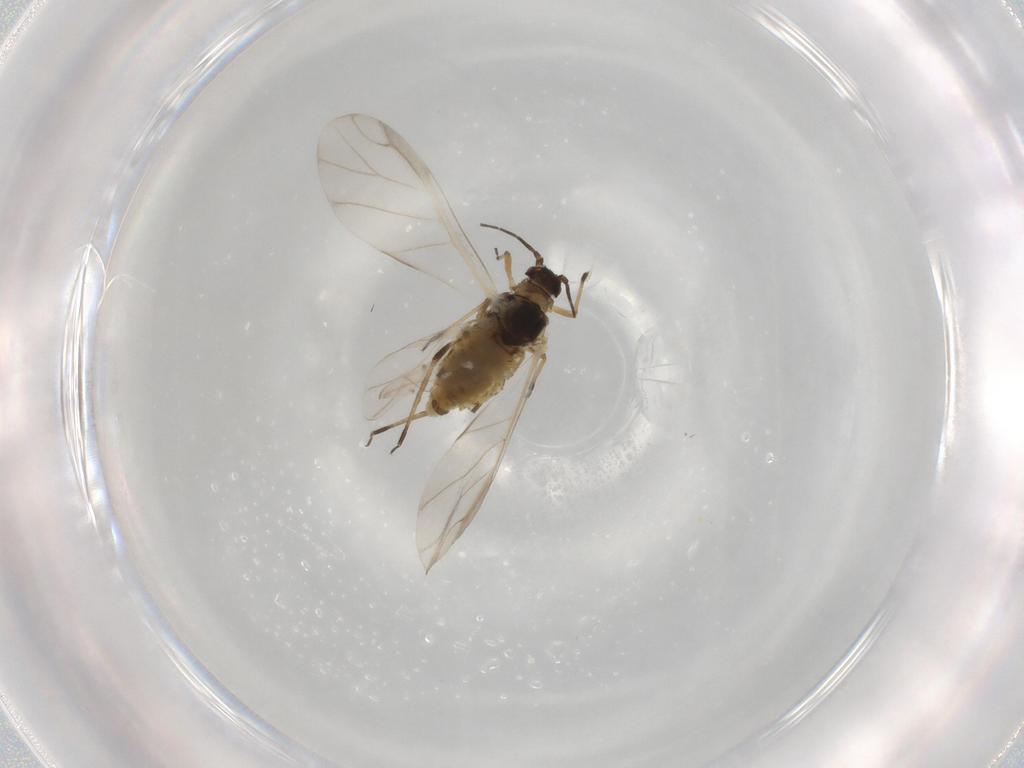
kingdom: Animalia
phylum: Arthropoda
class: Insecta
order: Hemiptera
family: Aphididae
